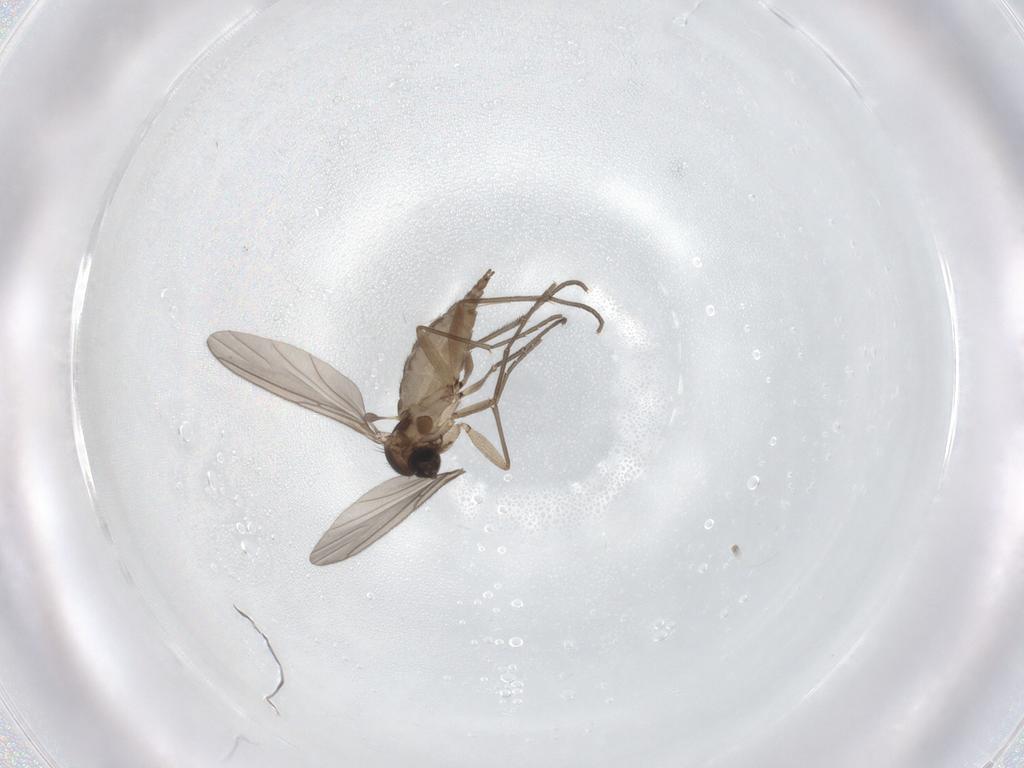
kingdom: Animalia
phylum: Arthropoda
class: Insecta
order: Diptera
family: Sciaridae
